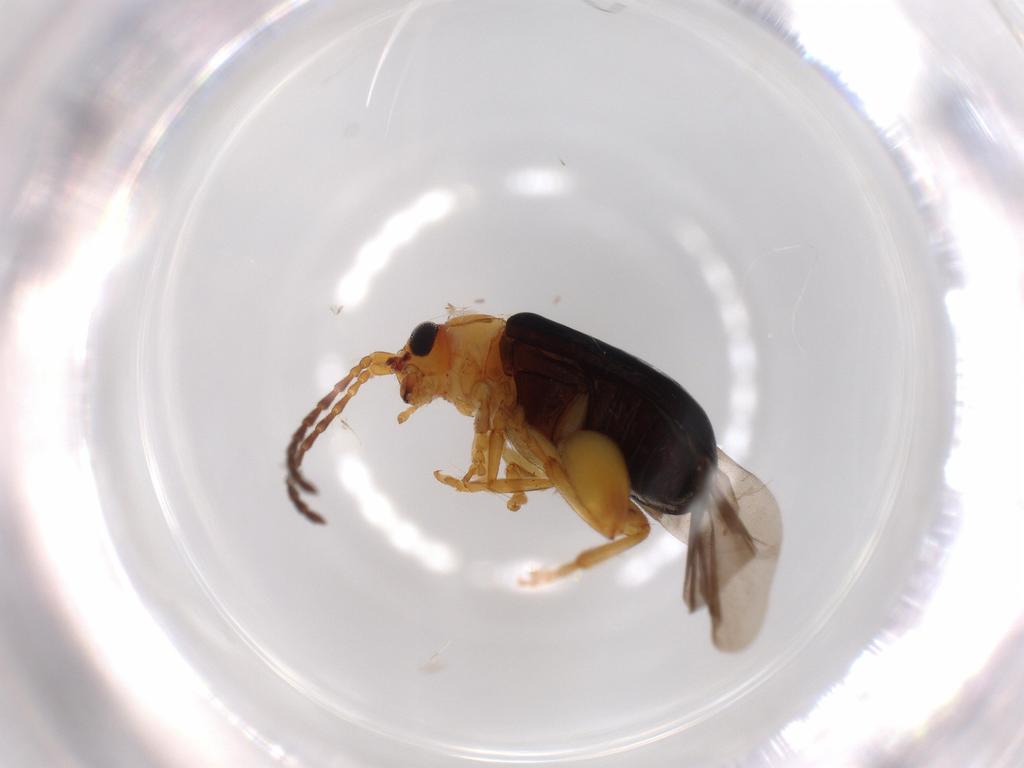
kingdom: Animalia
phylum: Arthropoda
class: Insecta
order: Coleoptera
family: Chrysomelidae
